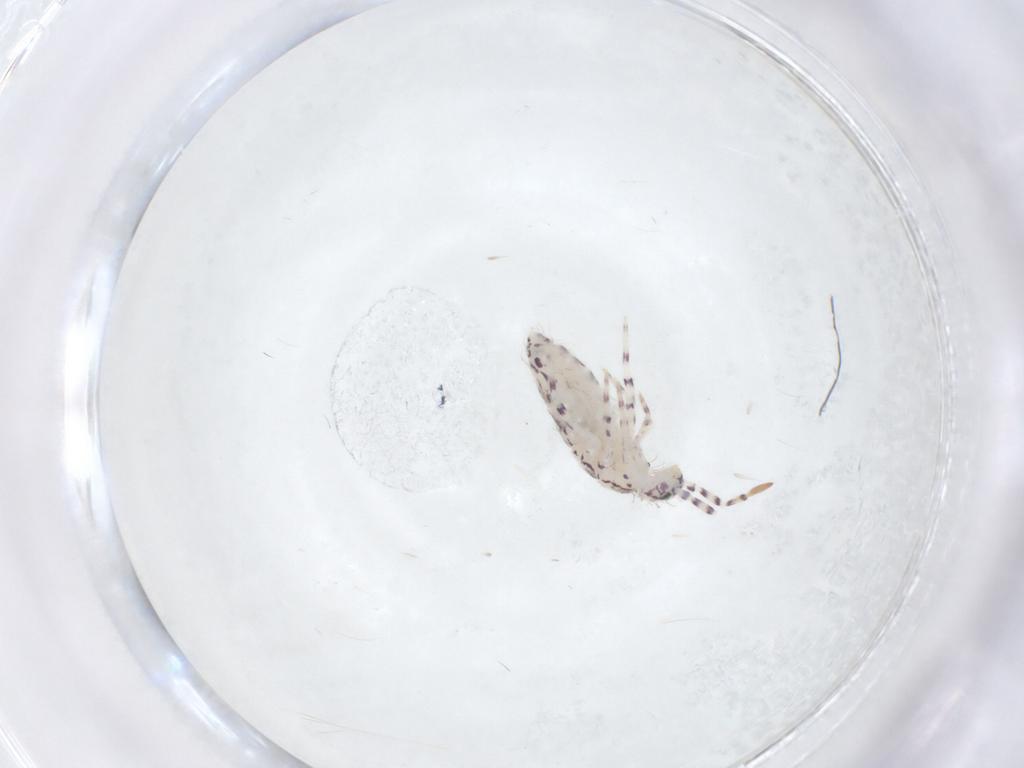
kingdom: Animalia
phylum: Arthropoda
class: Collembola
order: Entomobryomorpha
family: Entomobryidae
